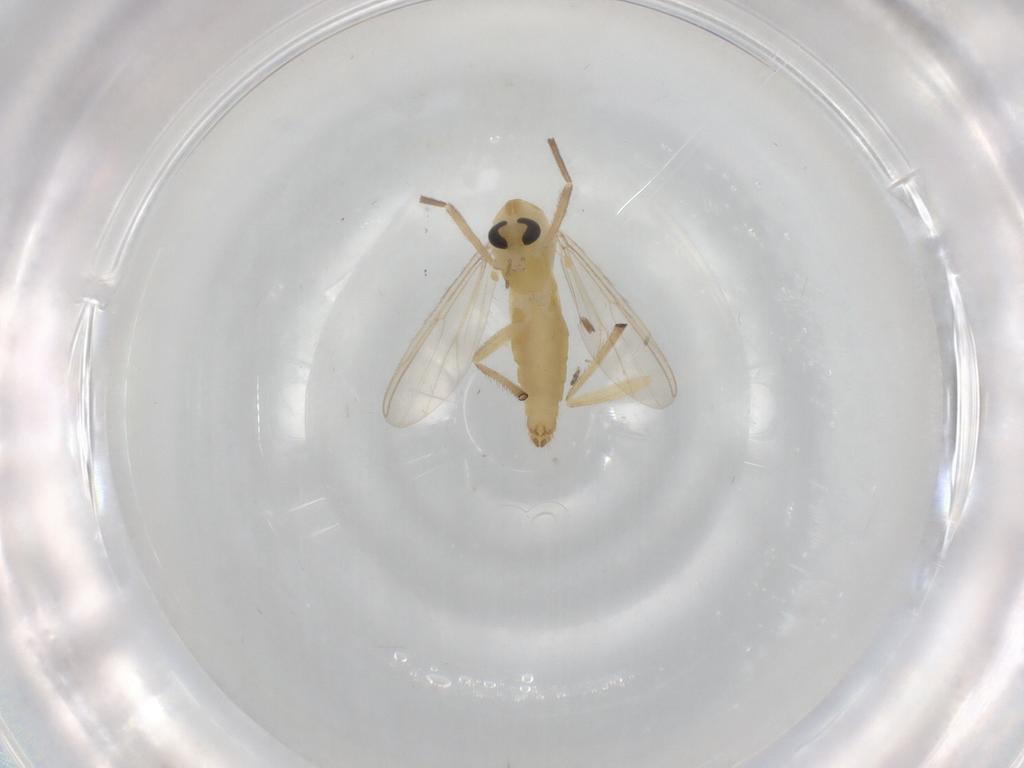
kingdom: Animalia
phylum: Arthropoda
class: Insecta
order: Diptera
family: Chironomidae
